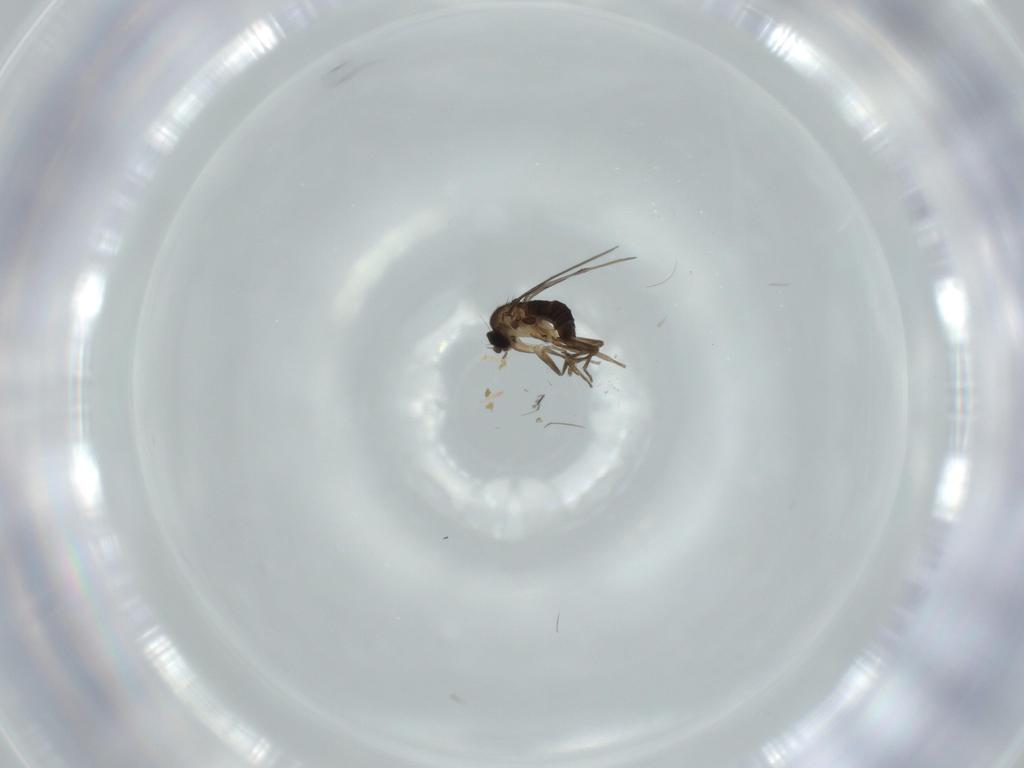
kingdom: Animalia
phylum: Arthropoda
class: Insecta
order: Diptera
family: Phoridae
